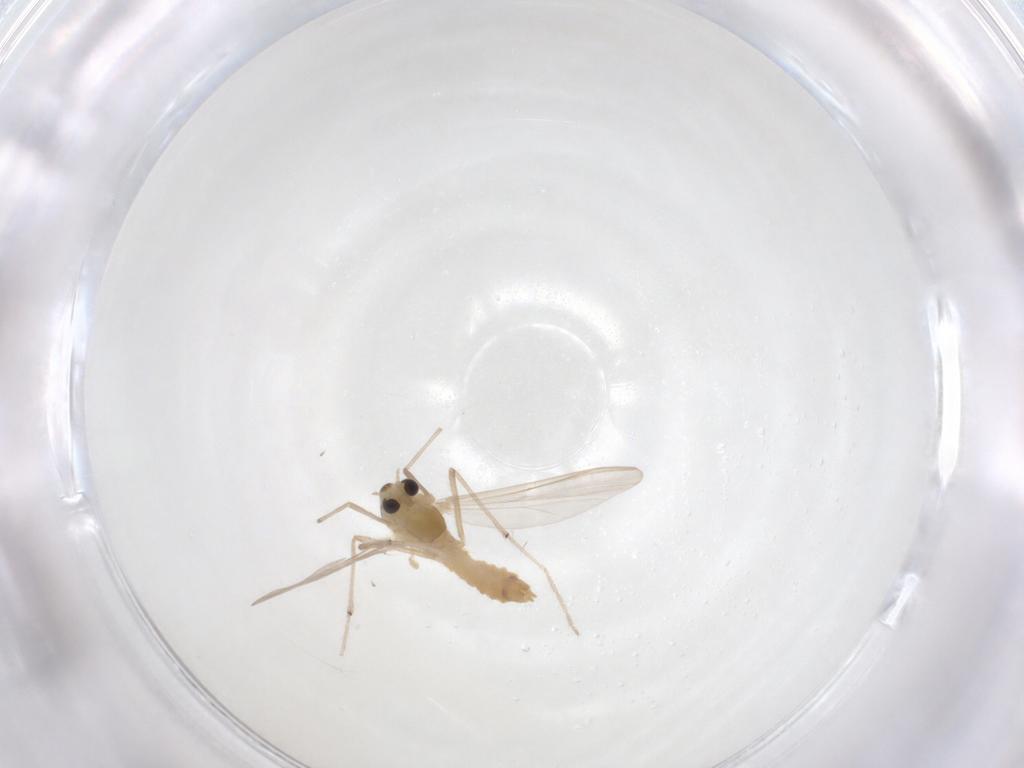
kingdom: Animalia
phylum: Arthropoda
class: Insecta
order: Diptera
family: Chironomidae
